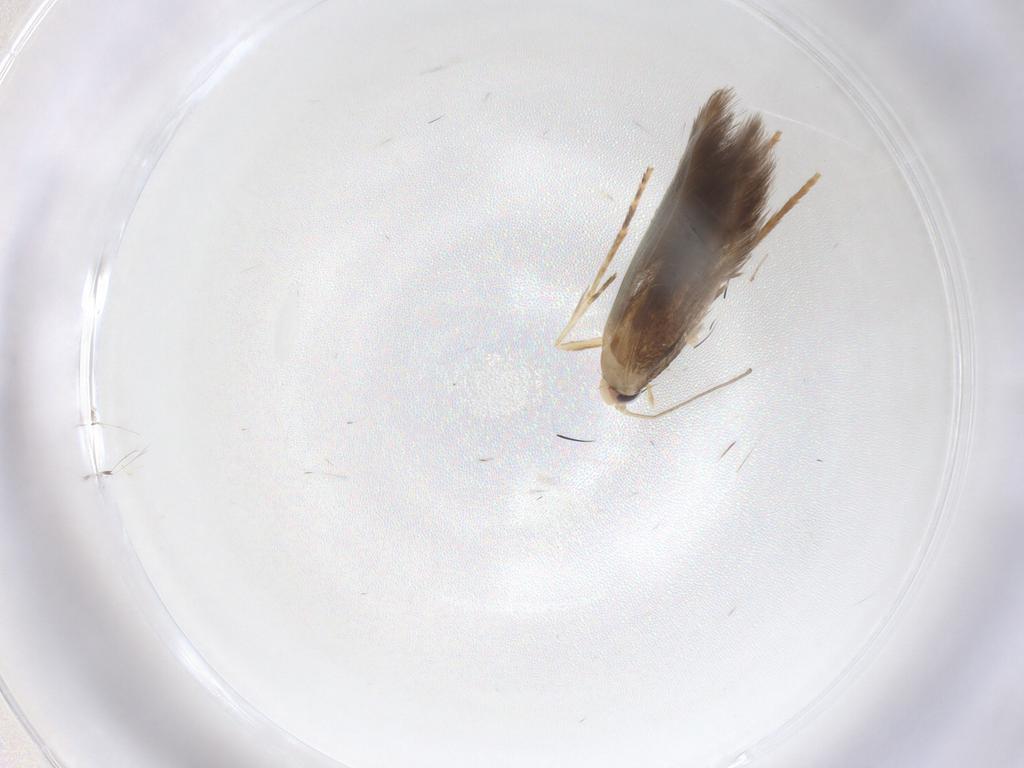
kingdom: Animalia
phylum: Arthropoda
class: Insecta
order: Lepidoptera
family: Tischeriidae
